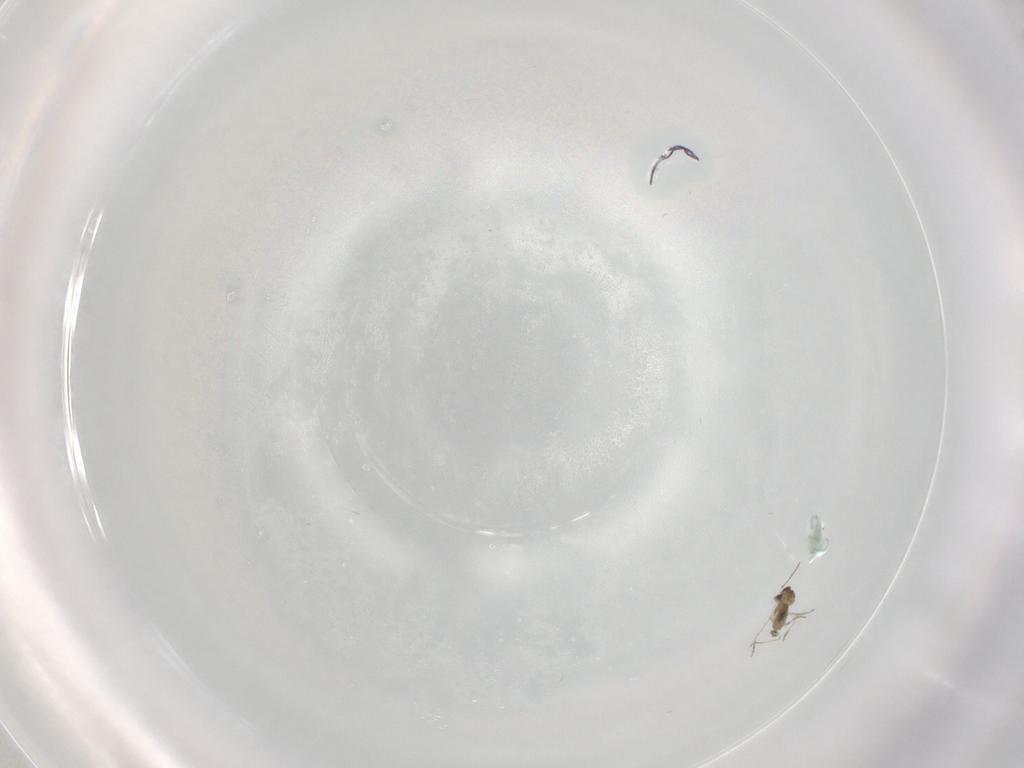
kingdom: Animalia
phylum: Arthropoda
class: Insecta
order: Diptera
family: Cecidomyiidae
